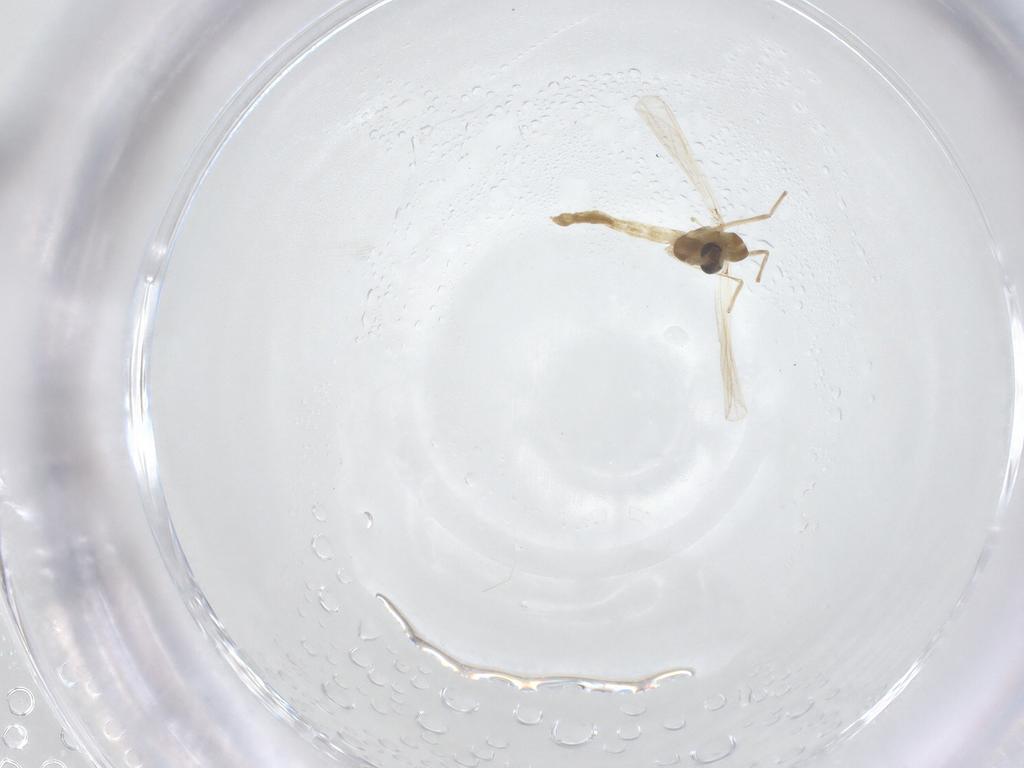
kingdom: Animalia
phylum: Arthropoda
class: Insecta
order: Diptera
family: Chironomidae
